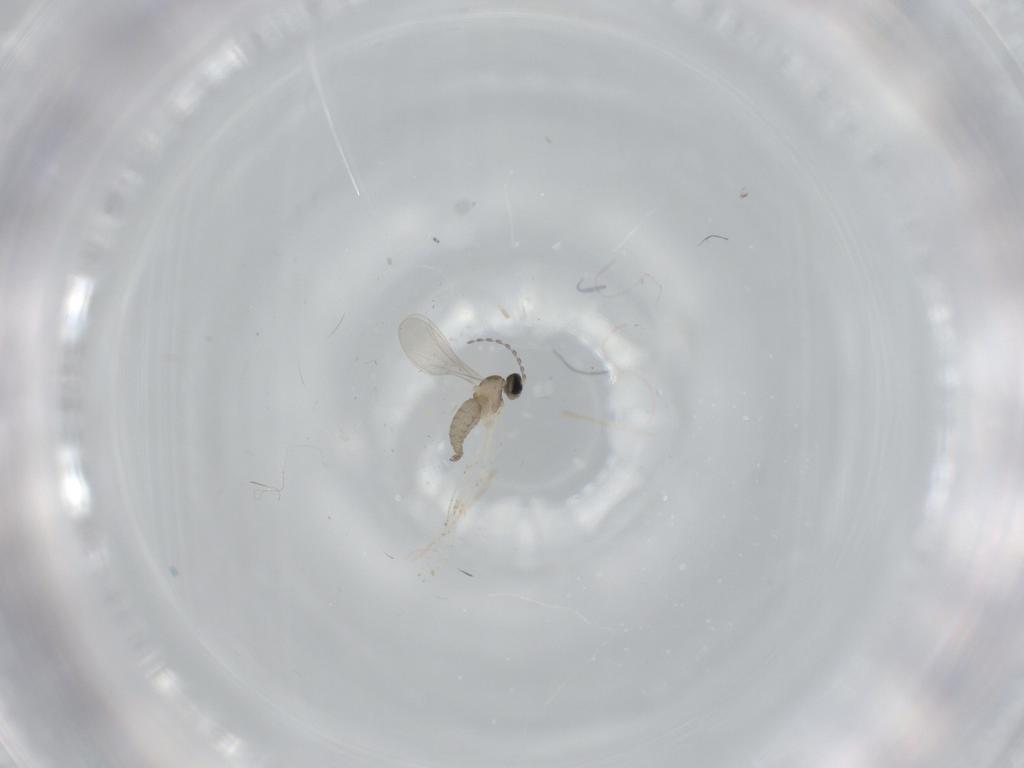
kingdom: Animalia
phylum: Arthropoda
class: Insecta
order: Diptera
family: Cecidomyiidae
